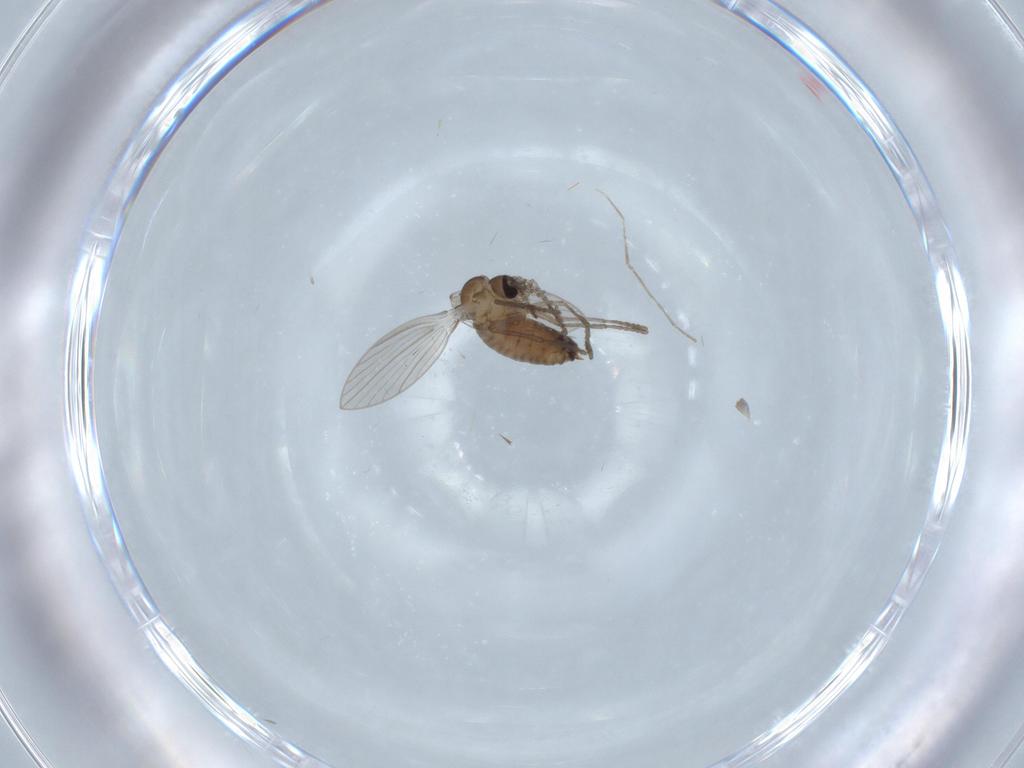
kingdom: Animalia
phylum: Arthropoda
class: Insecta
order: Diptera
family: Psychodidae
